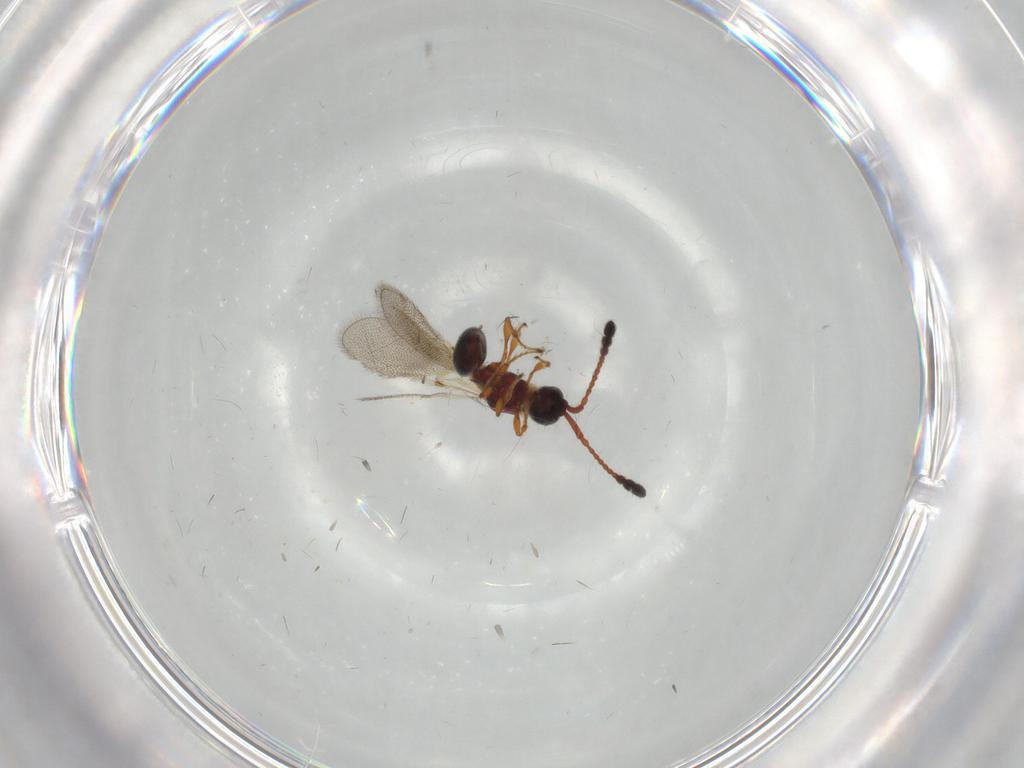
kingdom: Animalia
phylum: Arthropoda
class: Insecta
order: Hymenoptera
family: Diapriidae
